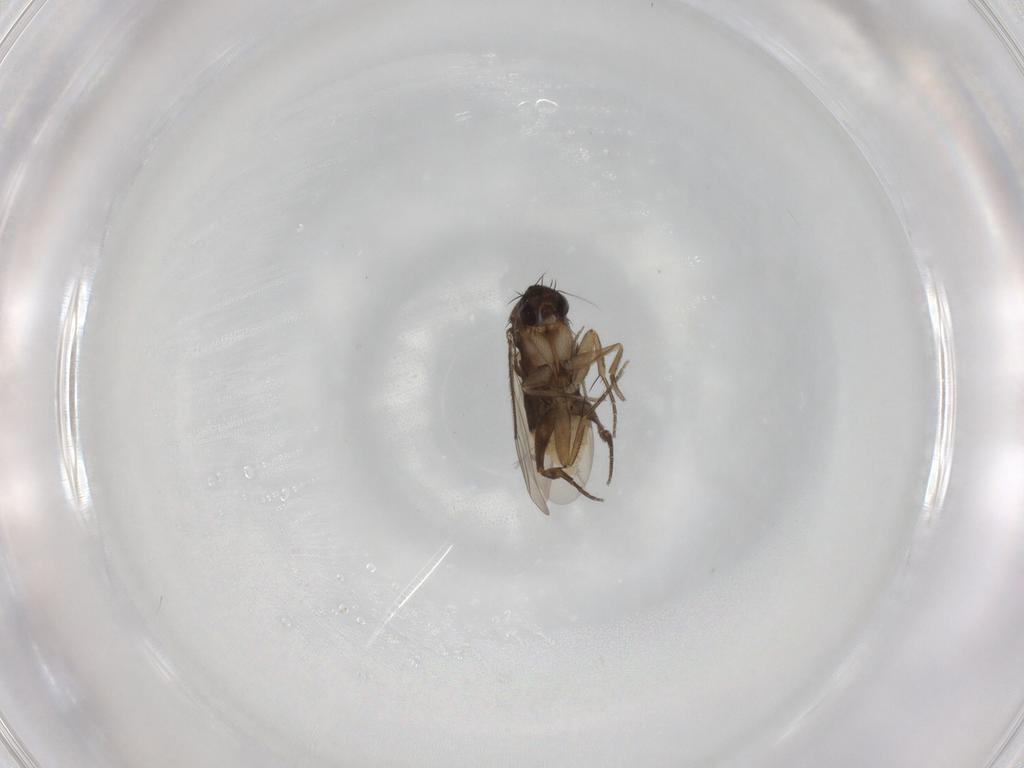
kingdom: Animalia
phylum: Arthropoda
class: Insecta
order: Diptera
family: Phoridae
